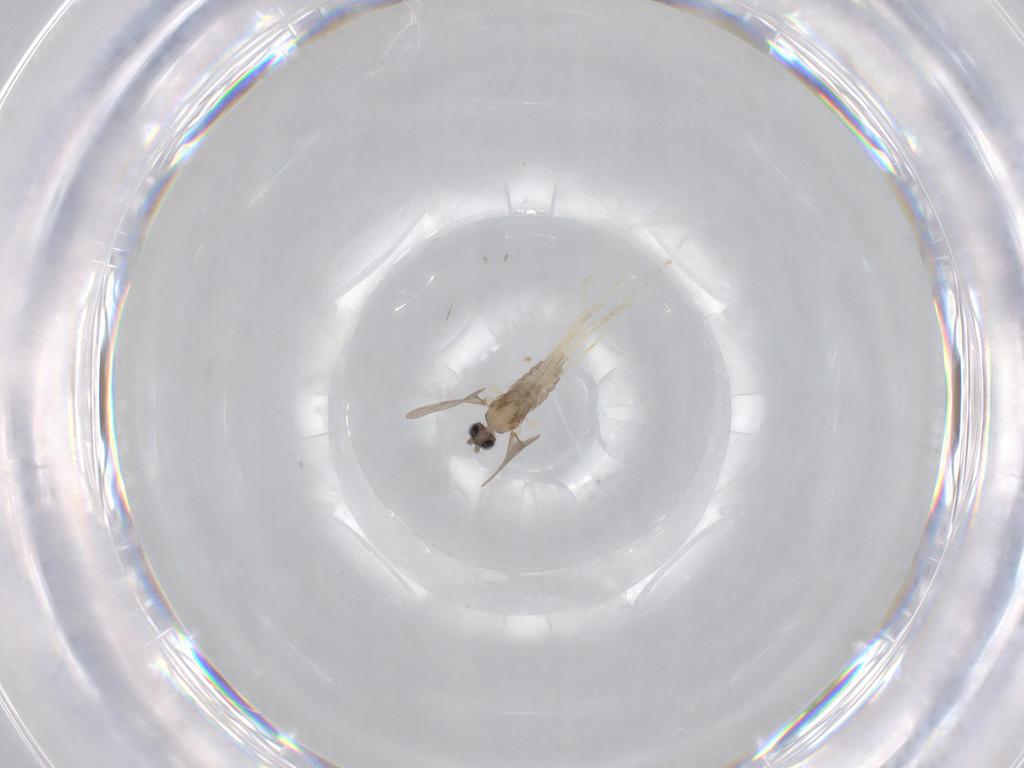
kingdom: Animalia
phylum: Arthropoda
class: Insecta
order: Diptera
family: Cecidomyiidae
